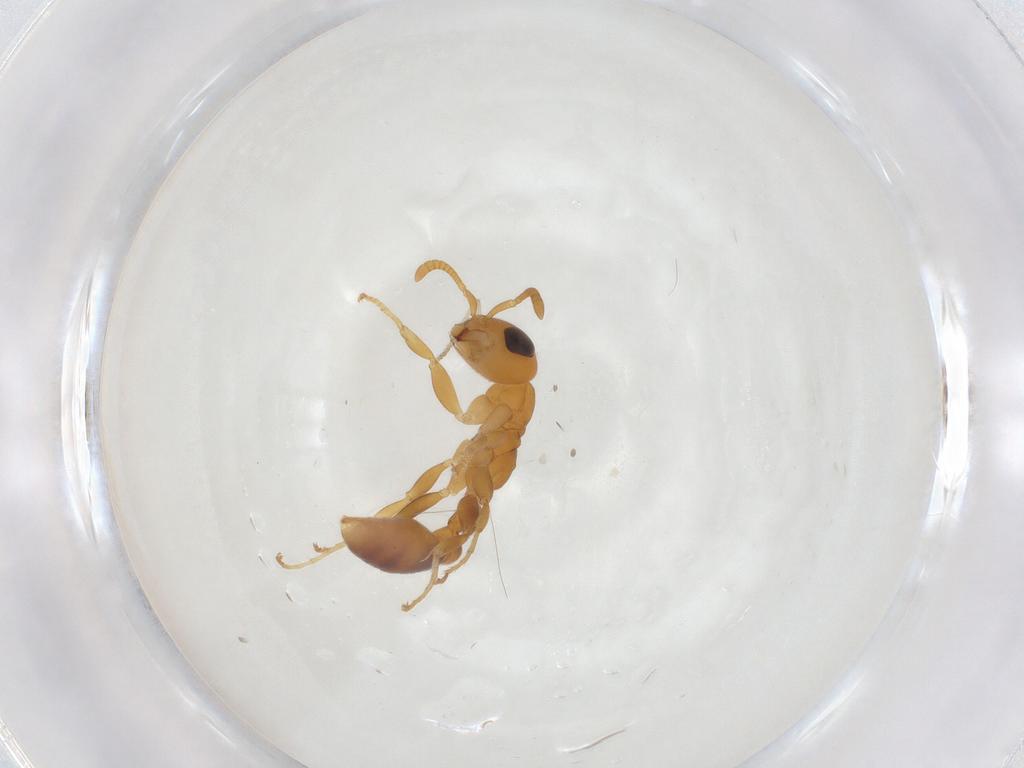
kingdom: Animalia
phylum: Arthropoda
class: Insecta
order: Hymenoptera
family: Formicidae
